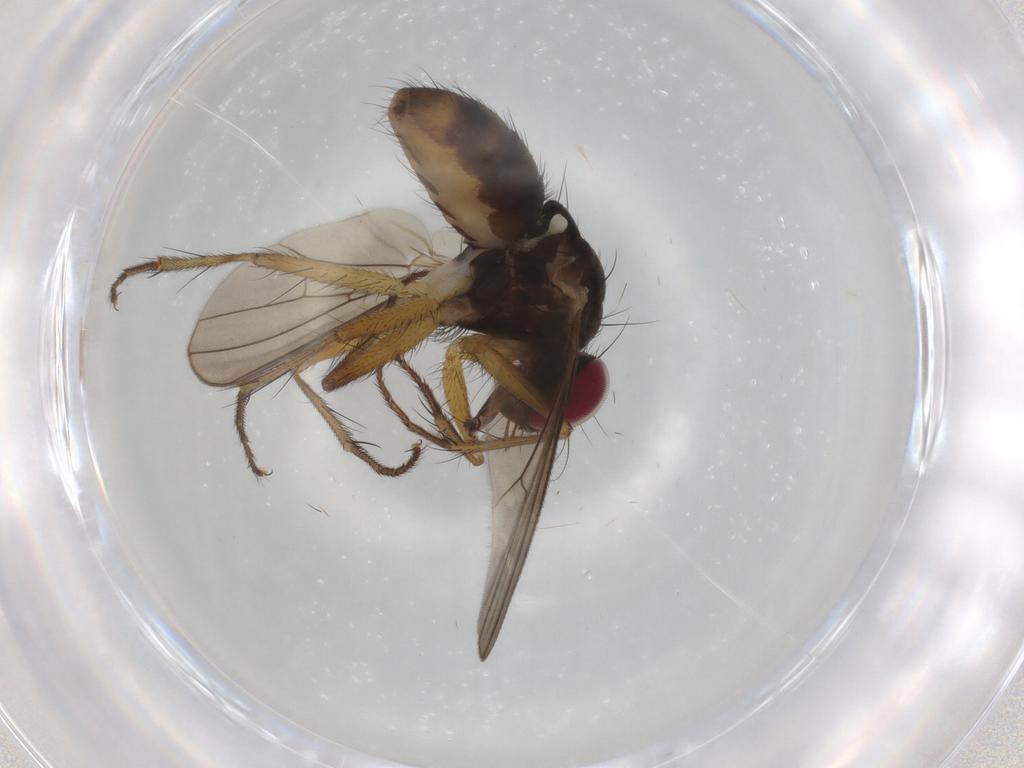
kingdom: Animalia
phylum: Arthropoda
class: Insecta
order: Diptera
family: Anthomyiidae
